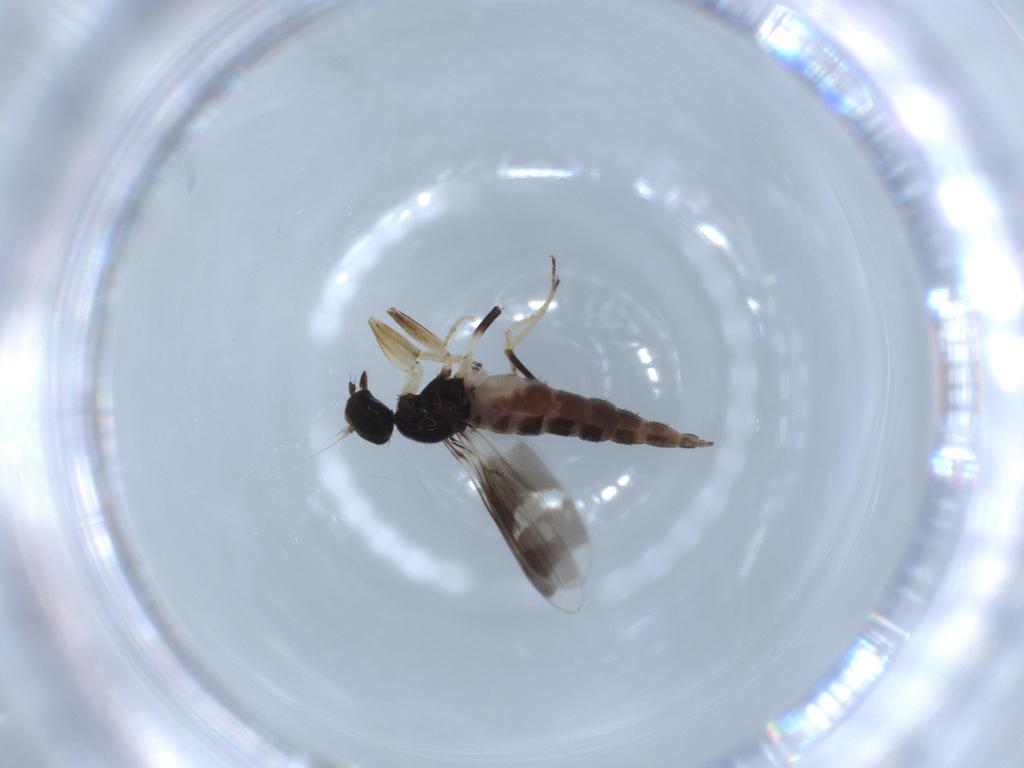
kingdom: Animalia
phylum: Arthropoda
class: Insecta
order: Diptera
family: Hybotidae
